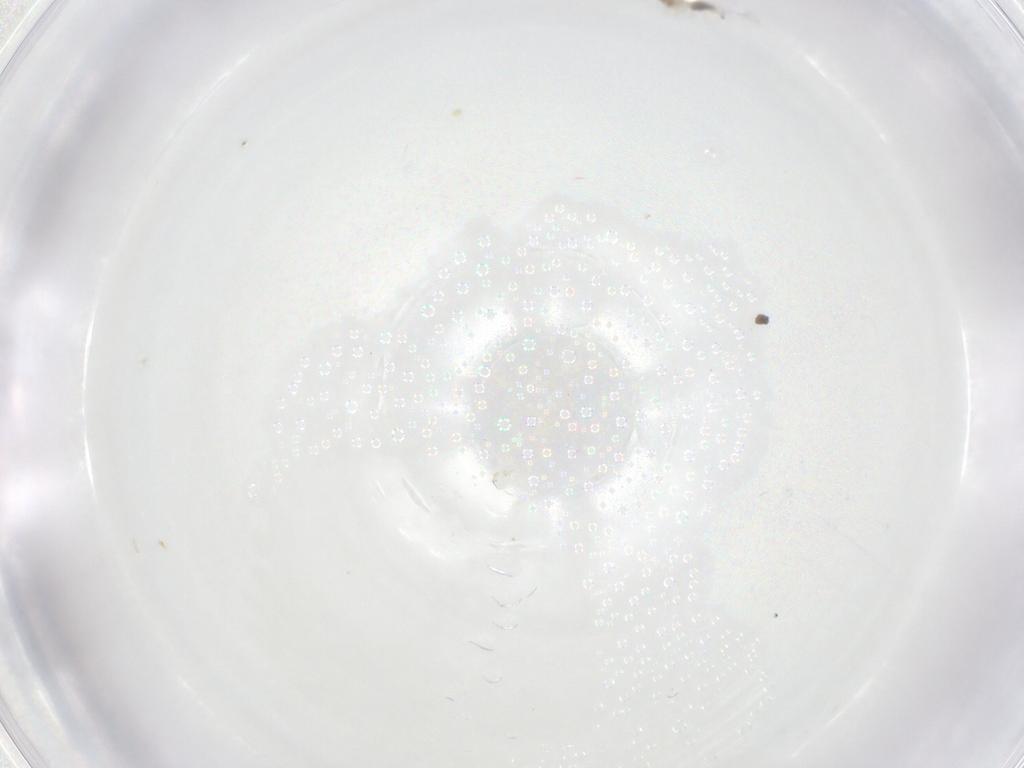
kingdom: Animalia
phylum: Arthropoda
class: Insecta
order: Diptera
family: Cecidomyiidae
